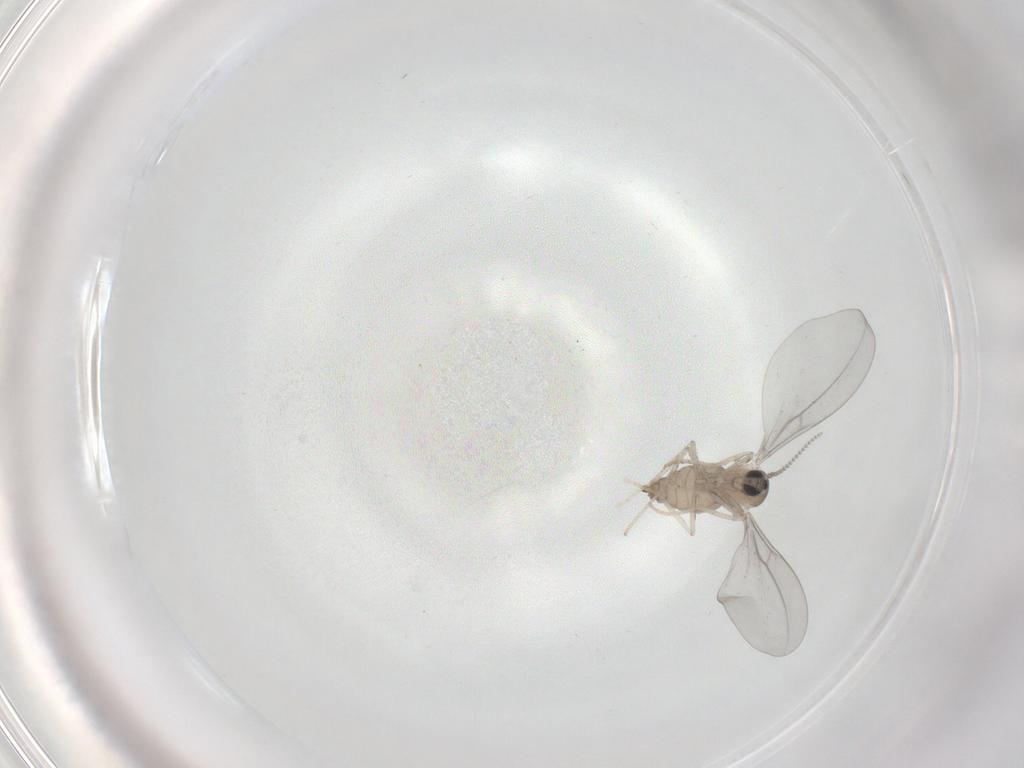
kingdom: Animalia
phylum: Arthropoda
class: Insecta
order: Diptera
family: Cecidomyiidae
